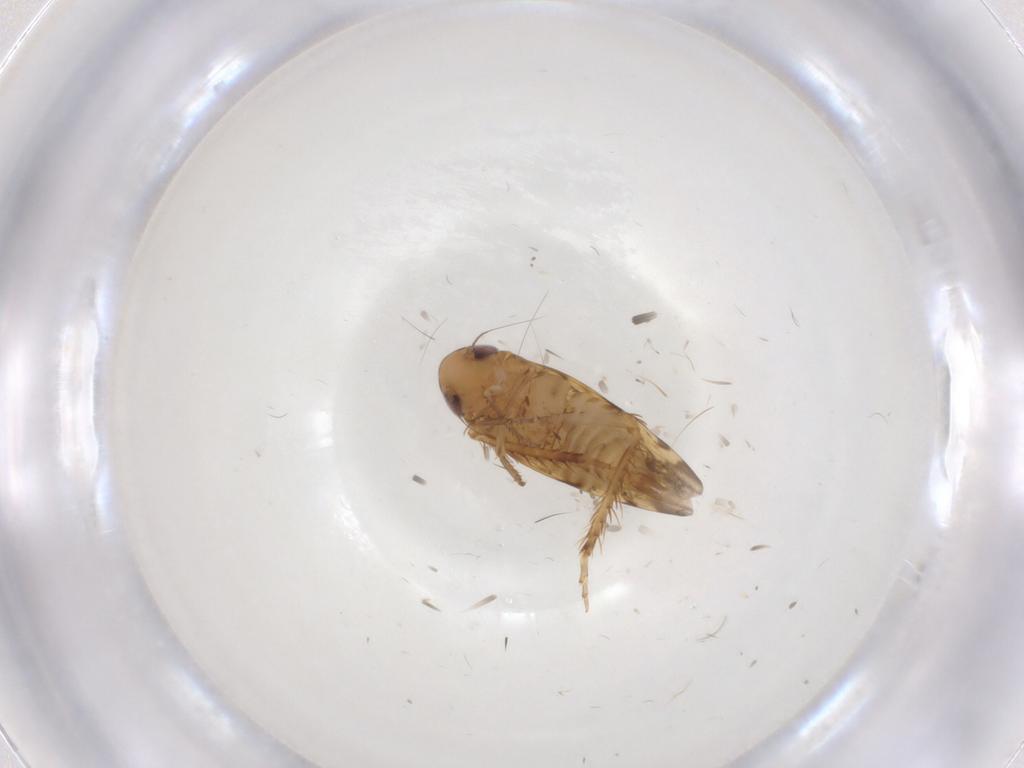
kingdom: Animalia
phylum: Arthropoda
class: Insecta
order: Hemiptera
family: Cicadellidae
